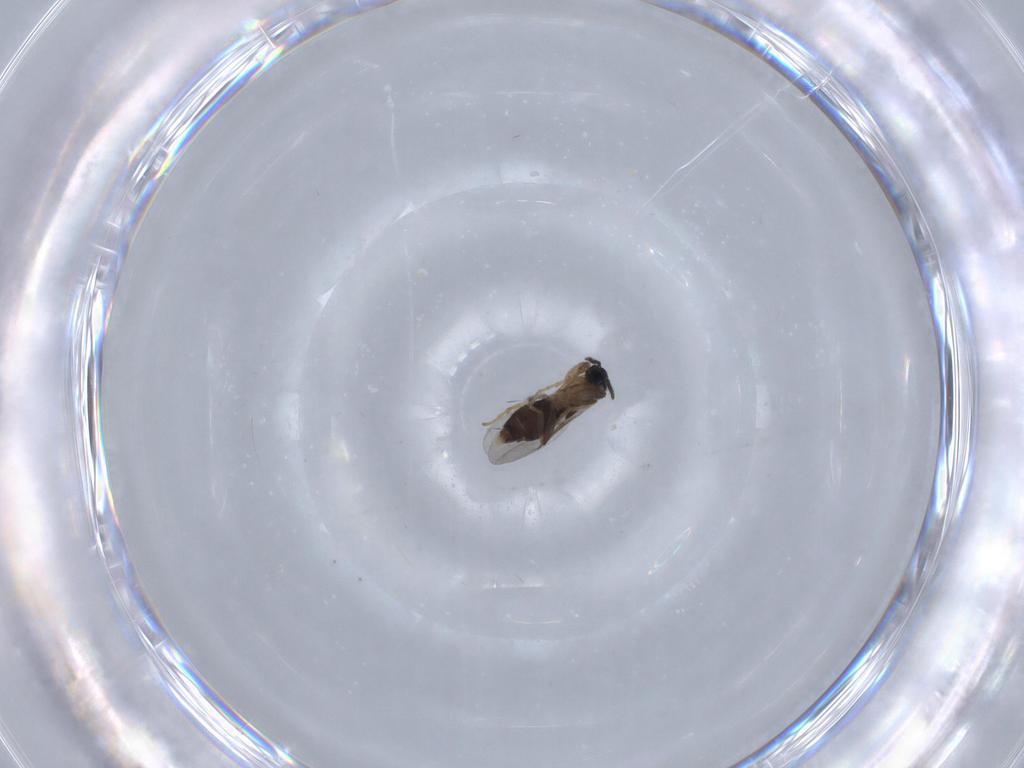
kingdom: Animalia
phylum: Arthropoda
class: Insecta
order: Diptera
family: Scatopsidae
